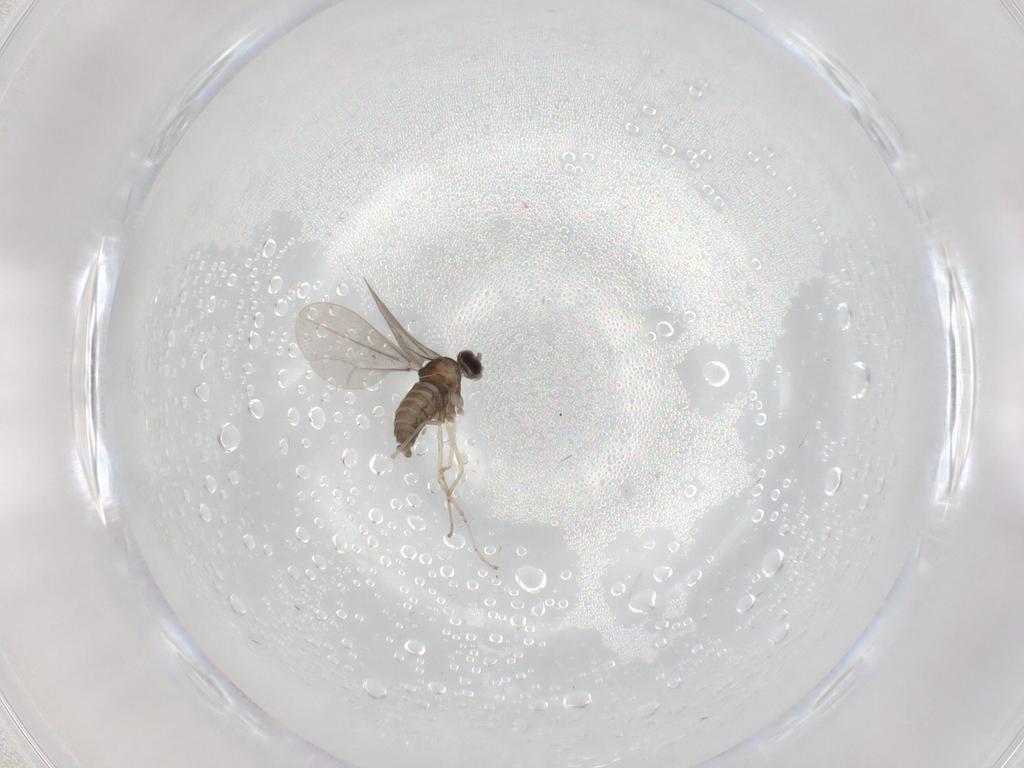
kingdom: Animalia
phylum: Arthropoda
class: Insecta
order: Diptera
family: Cecidomyiidae
